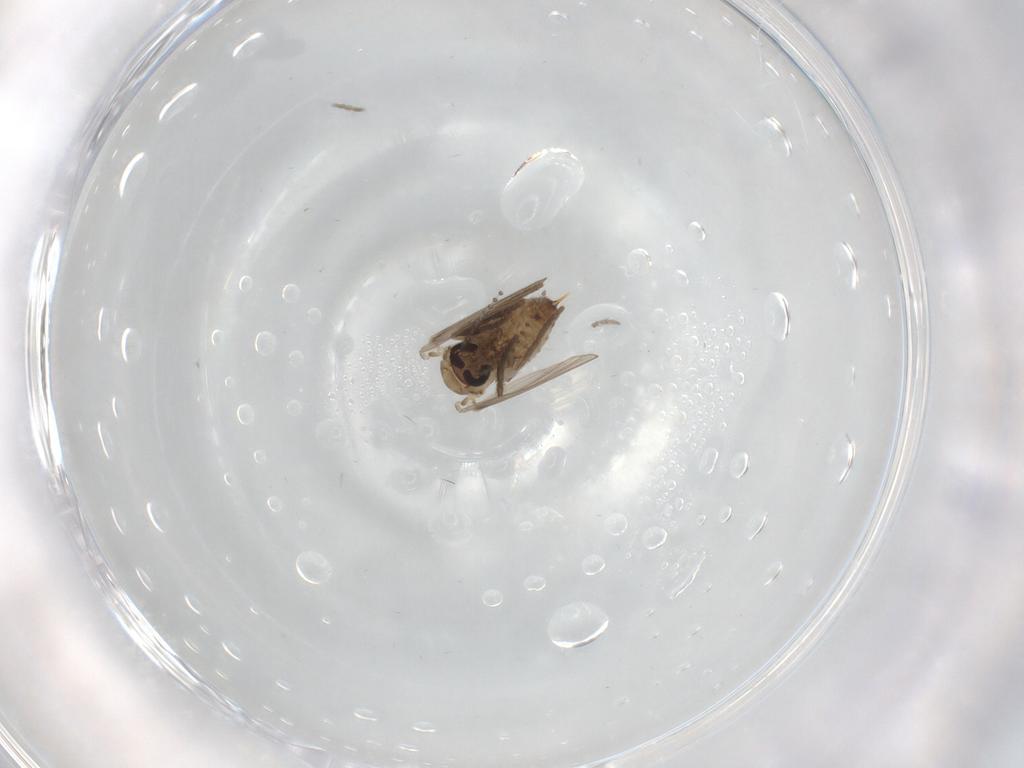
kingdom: Animalia
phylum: Arthropoda
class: Insecta
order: Diptera
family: Psychodidae
